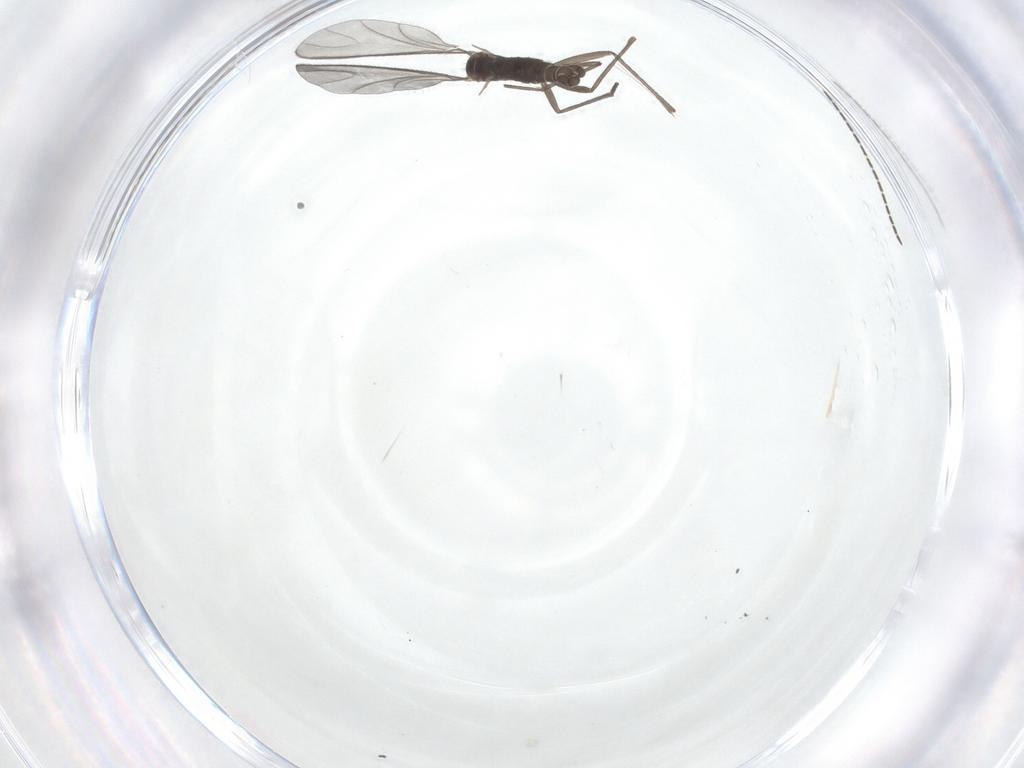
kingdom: Animalia
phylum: Arthropoda
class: Insecta
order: Diptera
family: Sciaridae
